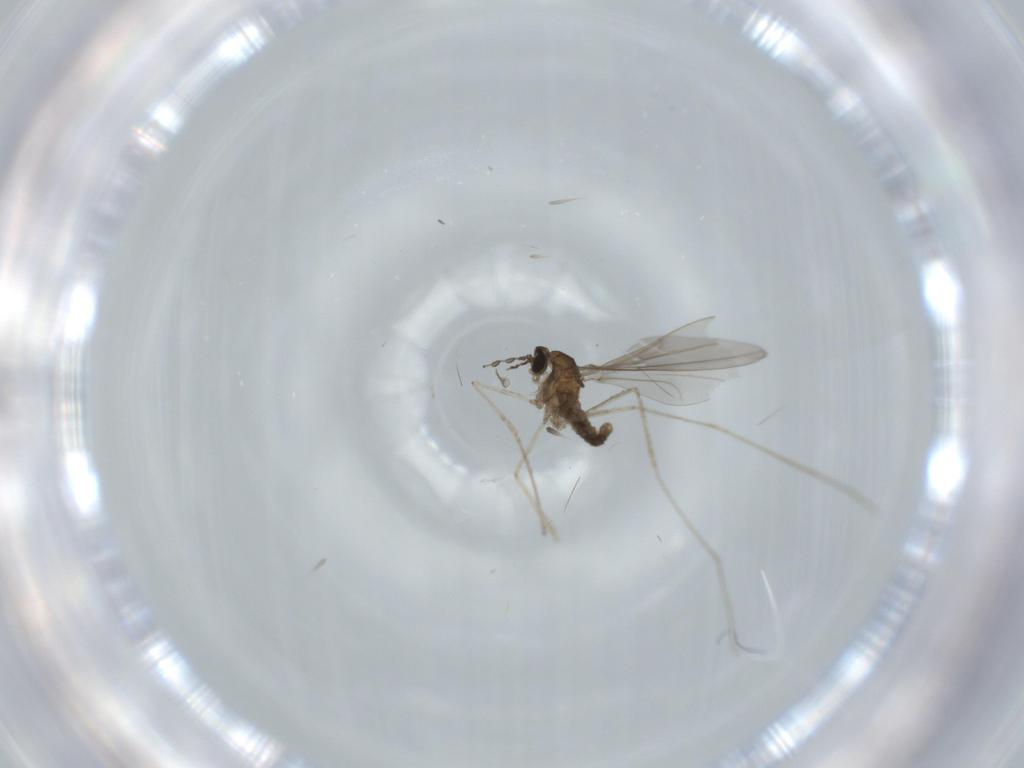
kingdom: Animalia
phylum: Arthropoda
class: Insecta
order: Diptera
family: Cecidomyiidae
